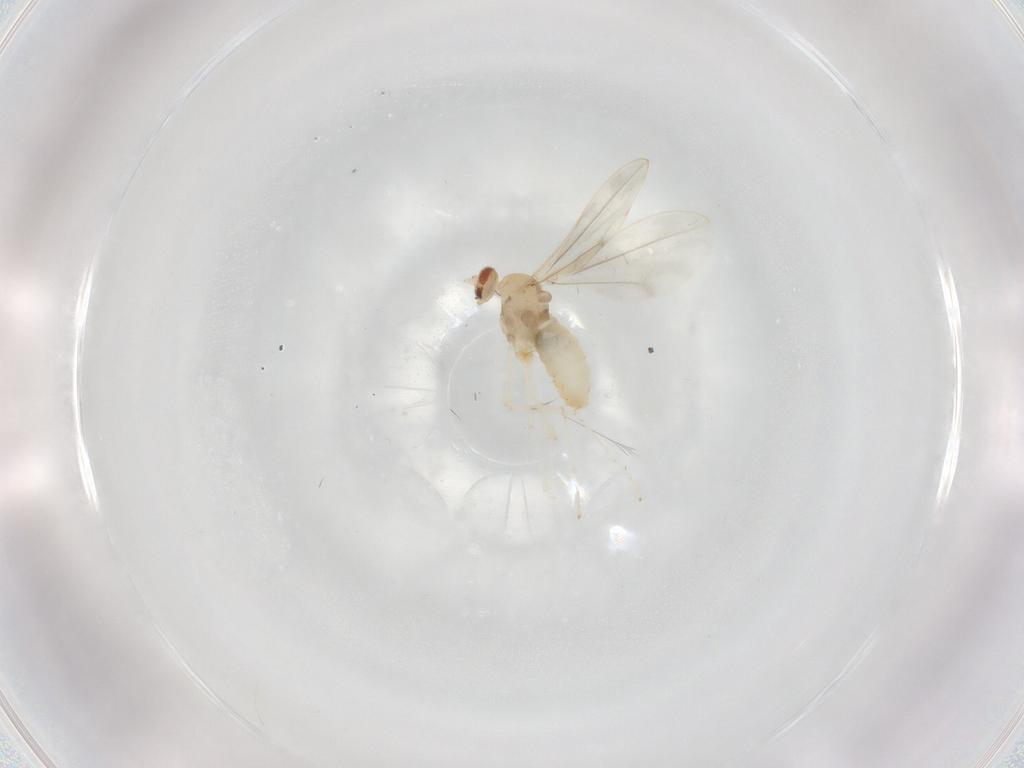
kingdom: Animalia
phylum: Arthropoda
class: Insecta
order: Diptera
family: Cecidomyiidae
